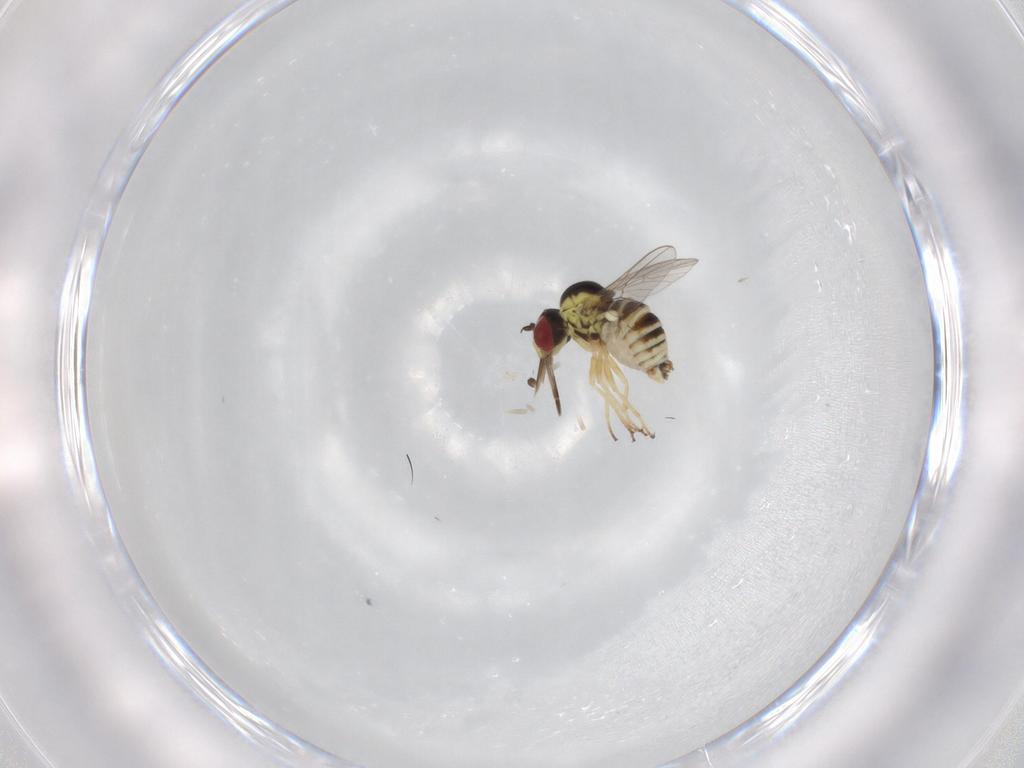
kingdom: Animalia
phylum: Arthropoda
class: Insecta
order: Diptera
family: Bombyliidae
